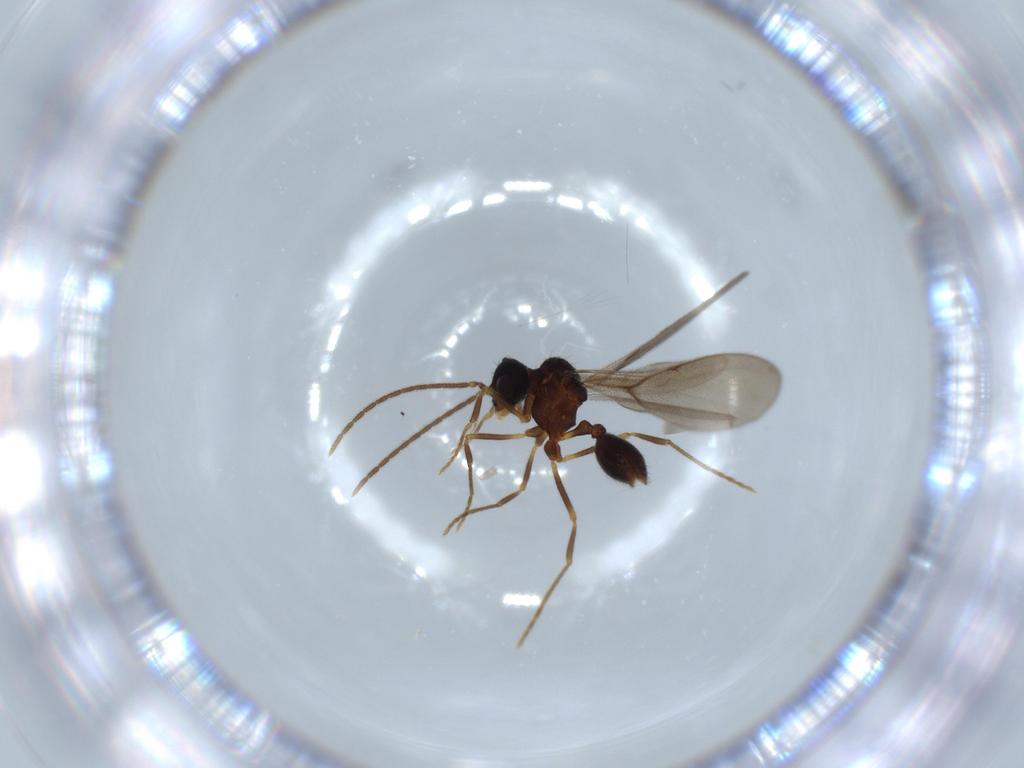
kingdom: Animalia
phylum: Arthropoda
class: Insecta
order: Hymenoptera
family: Formicidae
